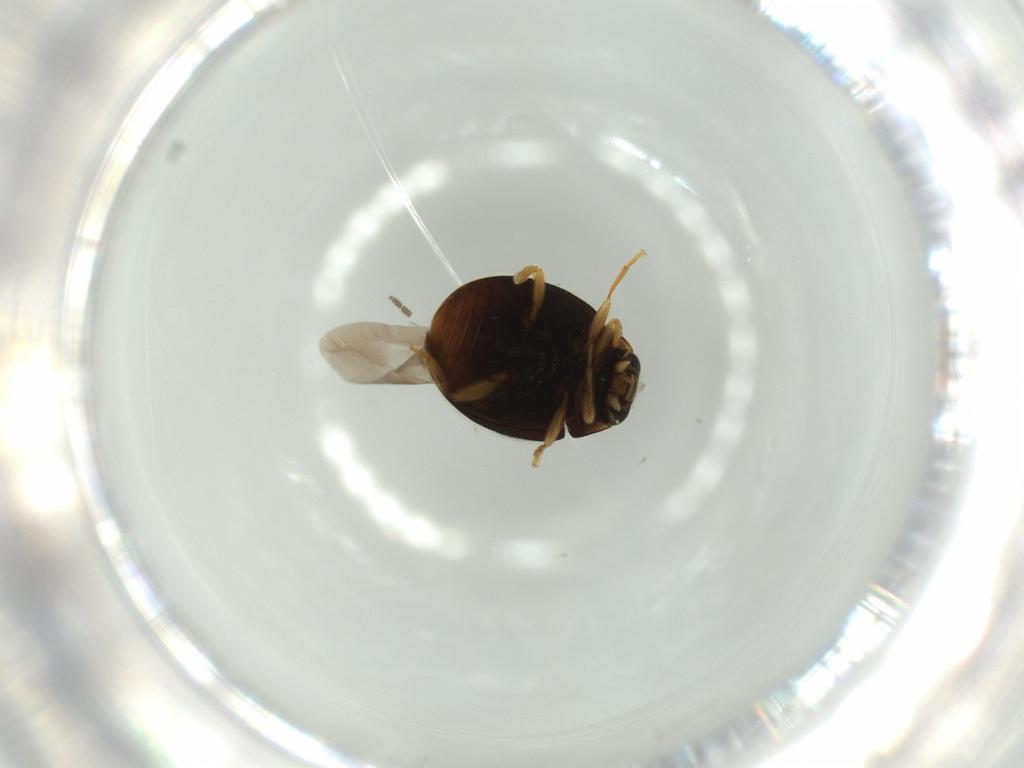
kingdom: Animalia
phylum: Arthropoda
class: Insecta
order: Coleoptera
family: Coccinellidae
